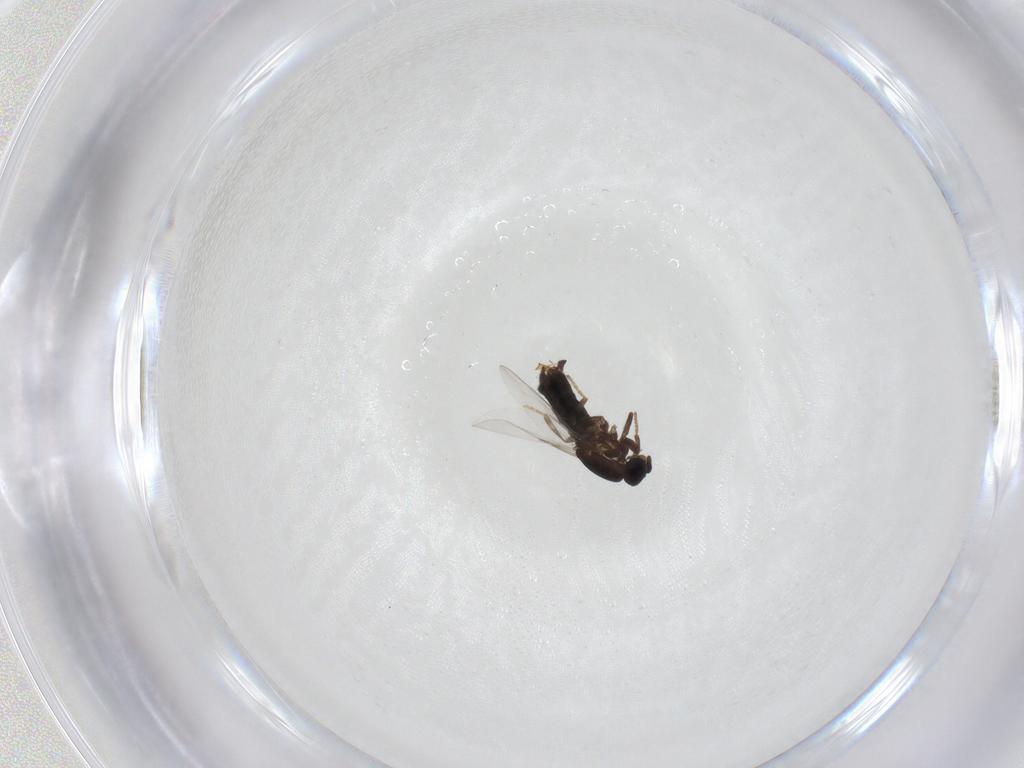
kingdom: Animalia
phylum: Arthropoda
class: Insecta
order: Diptera
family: Scatopsidae
